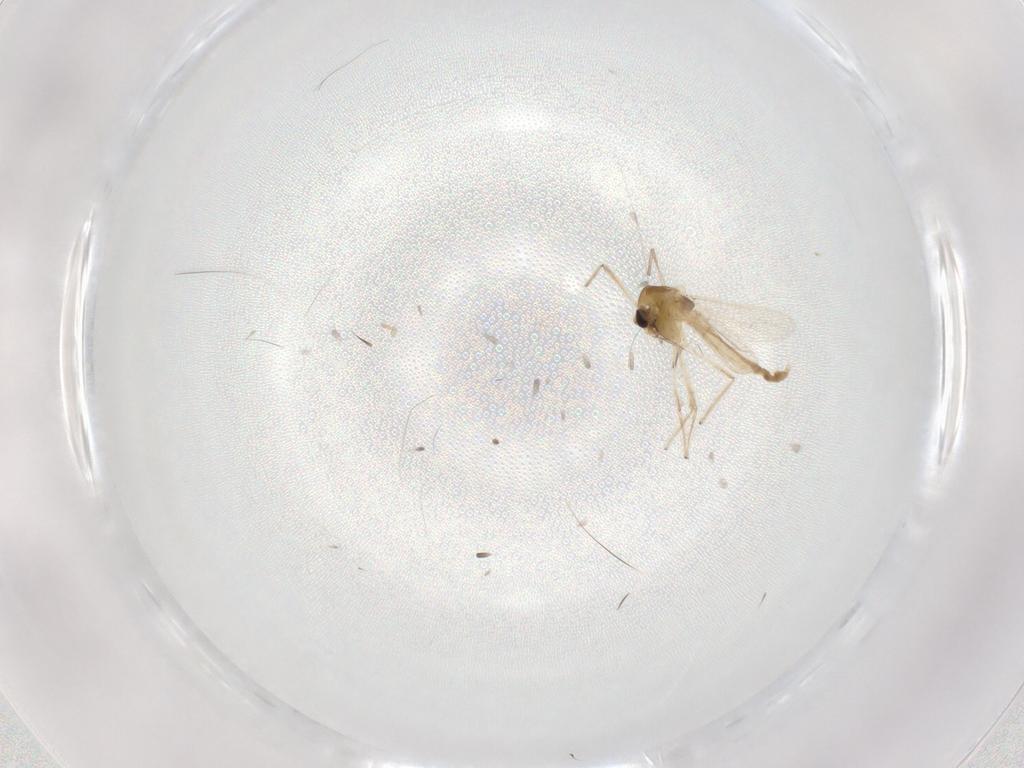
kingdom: Animalia
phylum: Arthropoda
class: Insecta
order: Diptera
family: Chironomidae
